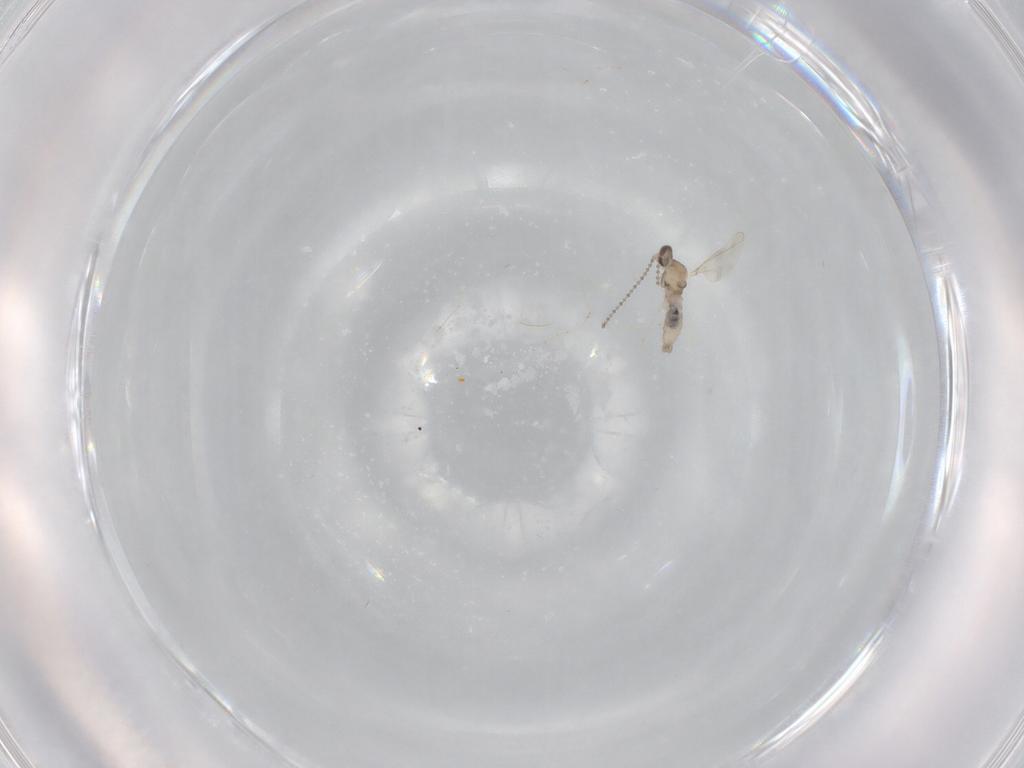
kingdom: Animalia
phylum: Arthropoda
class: Insecta
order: Diptera
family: Cecidomyiidae
